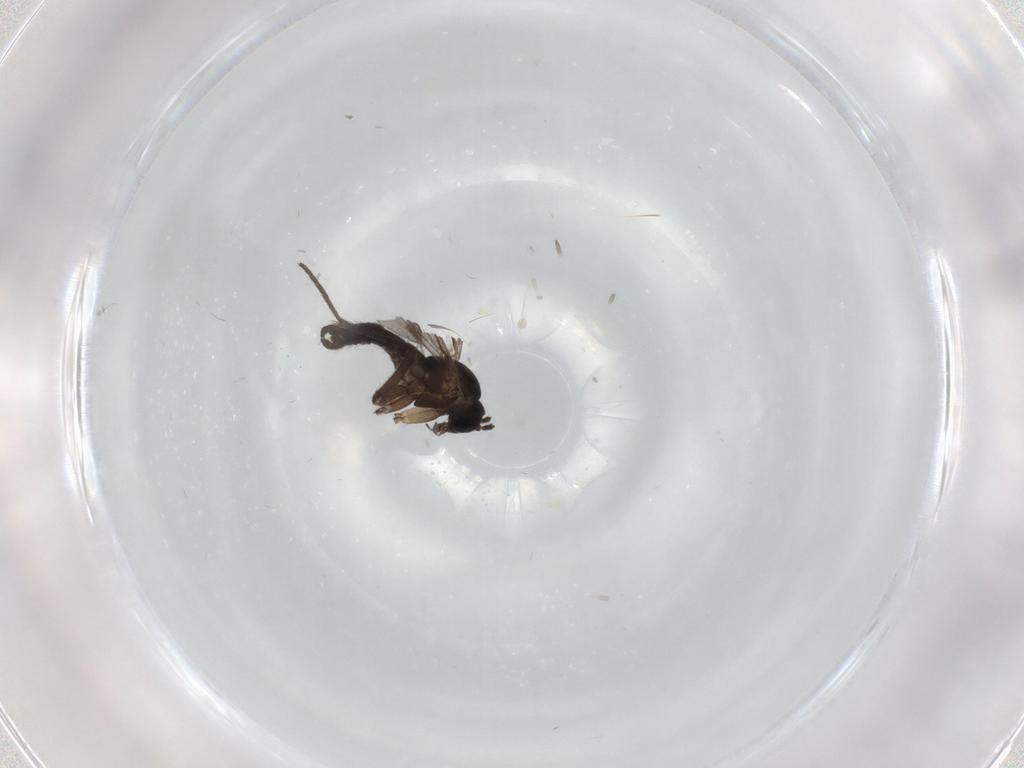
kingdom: Animalia
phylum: Arthropoda
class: Insecta
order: Diptera
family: Sciaridae
